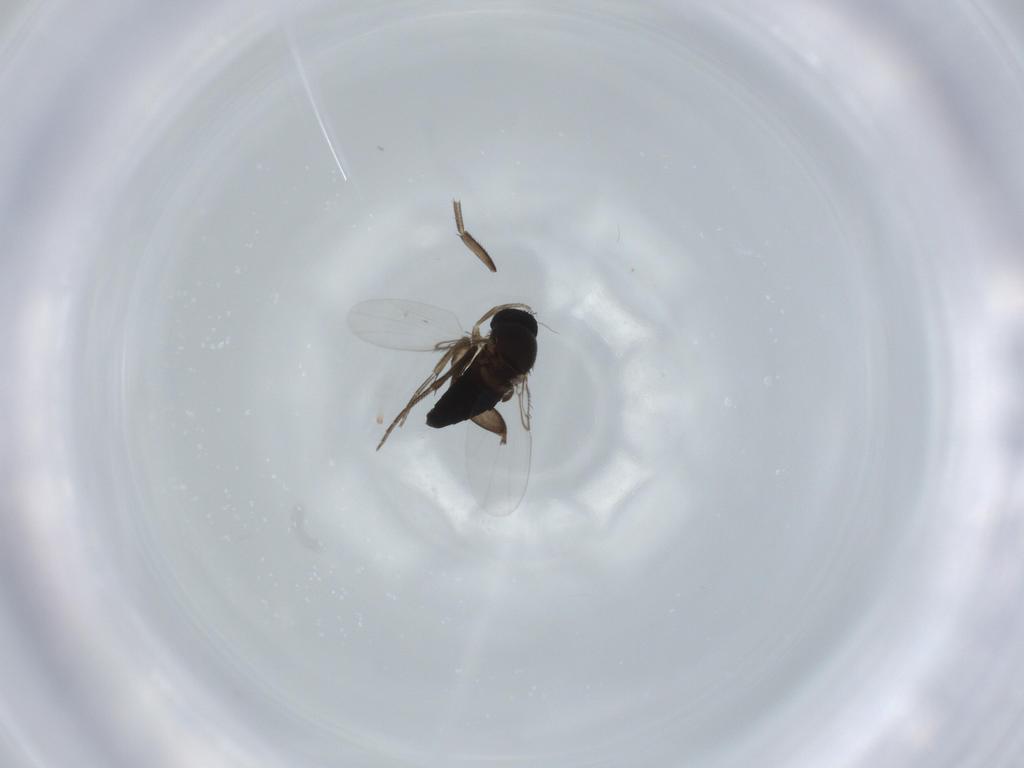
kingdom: Animalia
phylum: Arthropoda
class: Insecta
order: Diptera
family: Phoridae
